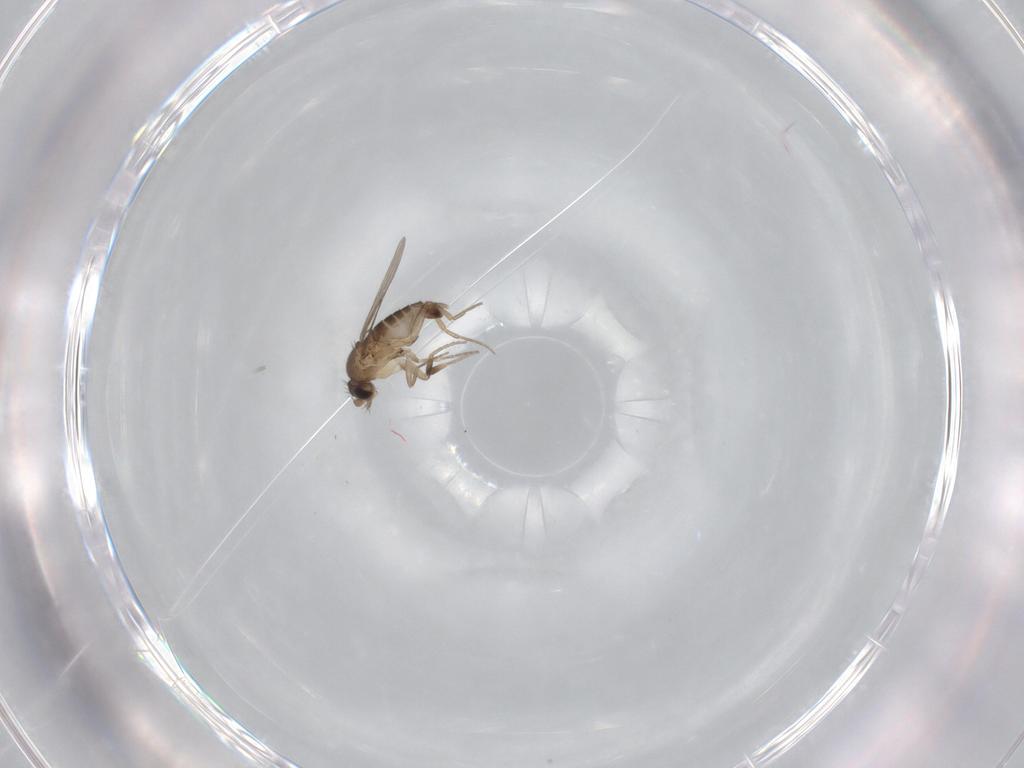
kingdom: Animalia
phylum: Arthropoda
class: Insecta
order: Diptera
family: Phoridae
